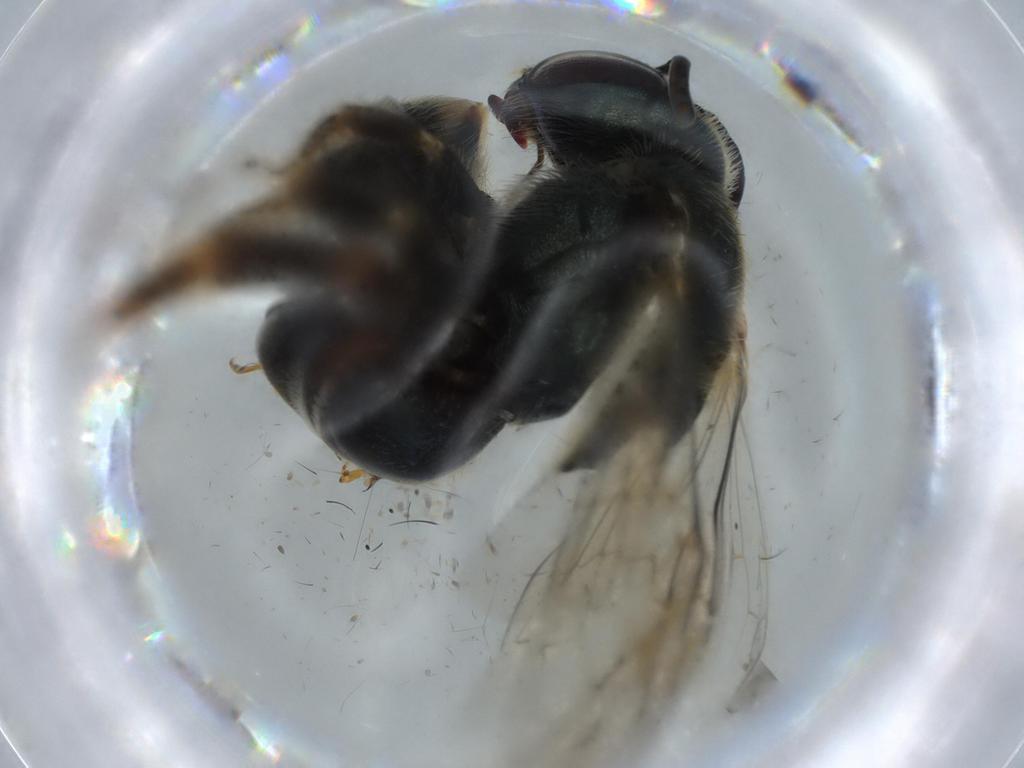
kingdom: Animalia
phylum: Arthropoda
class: Insecta
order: Hymenoptera
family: Halictidae
